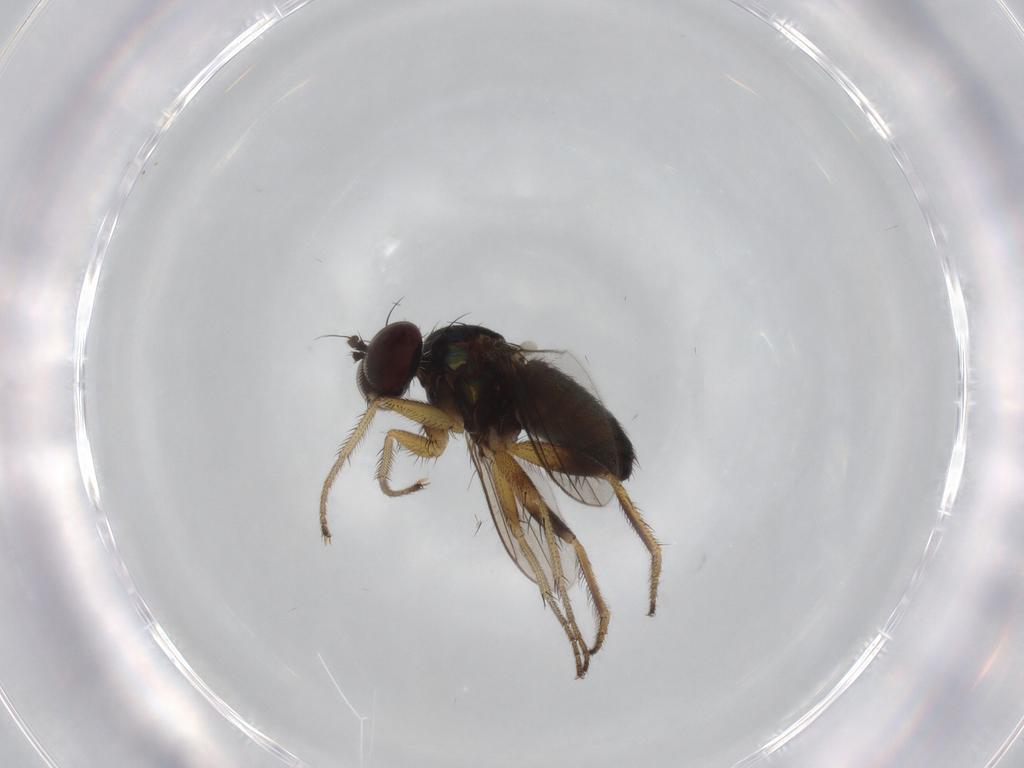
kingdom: Animalia
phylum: Arthropoda
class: Insecta
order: Diptera
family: Dolichopodidae
